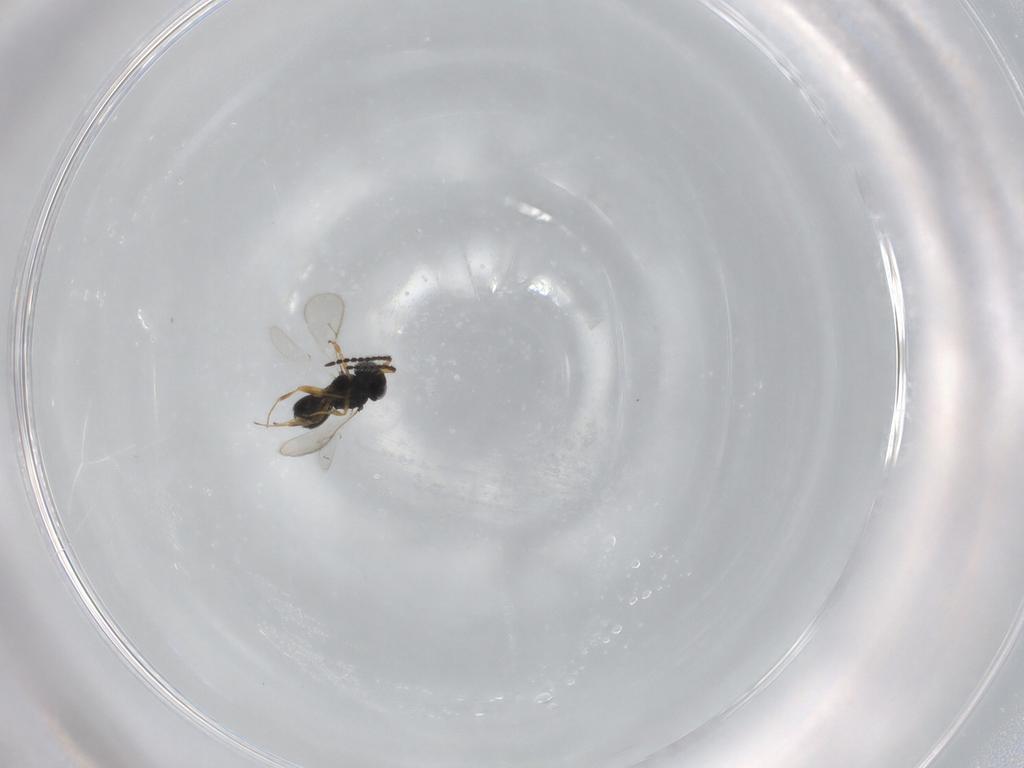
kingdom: Animalia
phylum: Arthropoda
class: Insecta
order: Hymenoptera
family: Scelionidae
